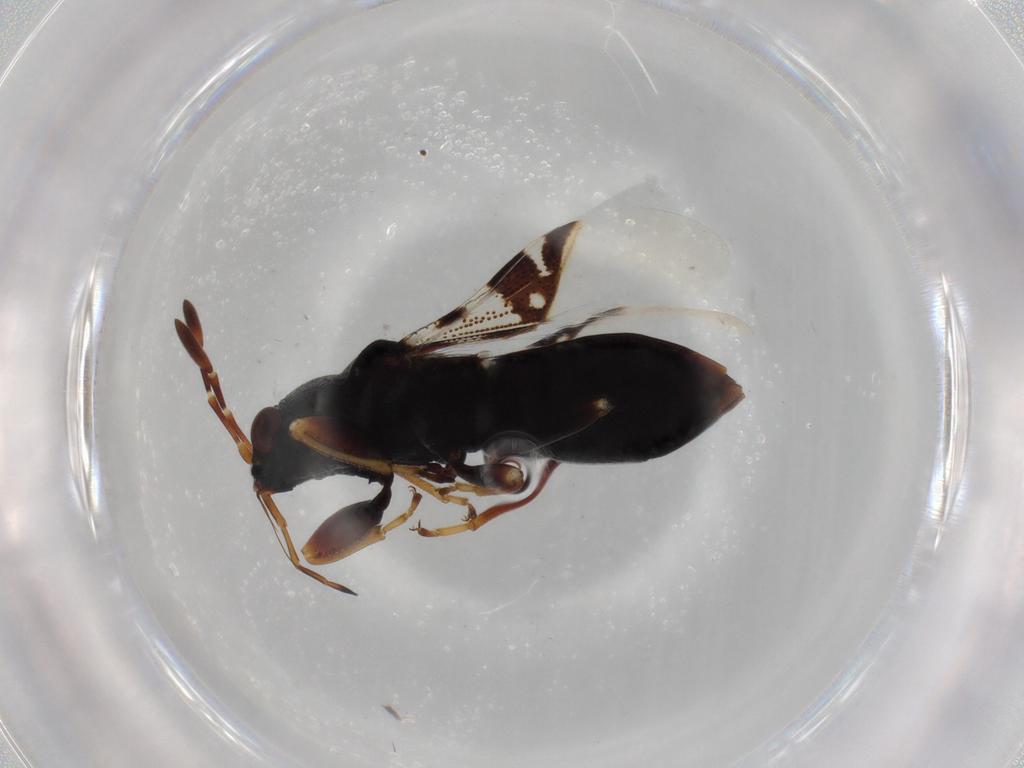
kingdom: Animalia
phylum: Arthropoda
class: Insecta
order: Hemiptera
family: Rhyparochromidae
